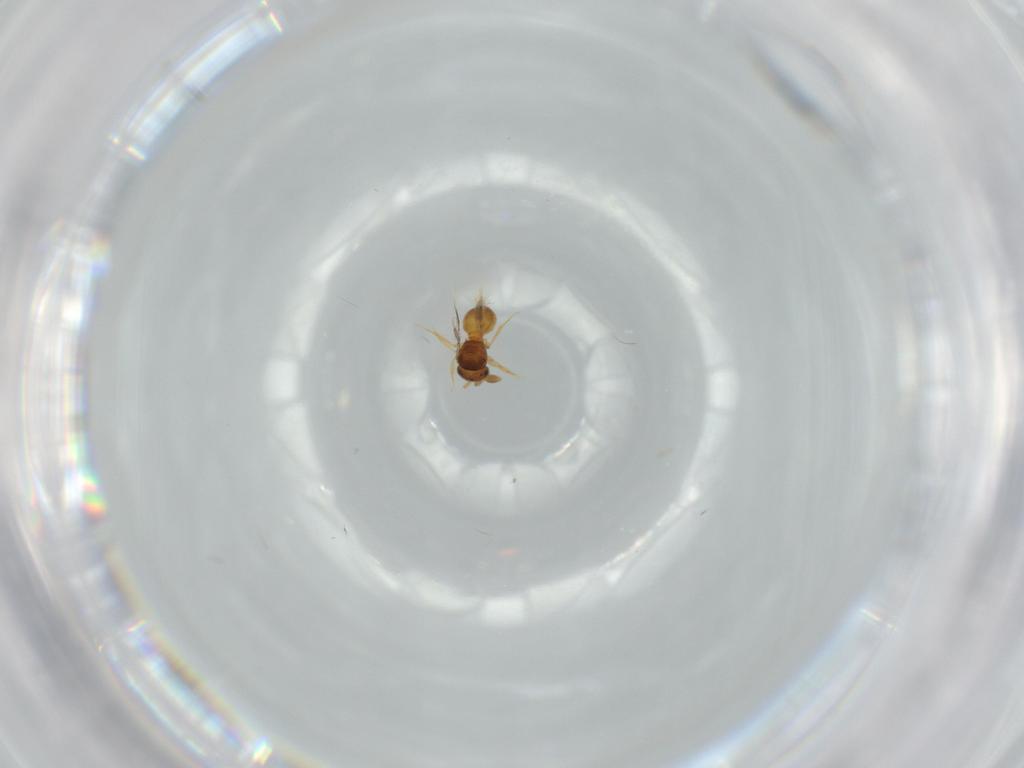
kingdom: Animalia
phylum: Arthropoda
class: Insecta
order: Hymenoptera
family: Scelionidae
